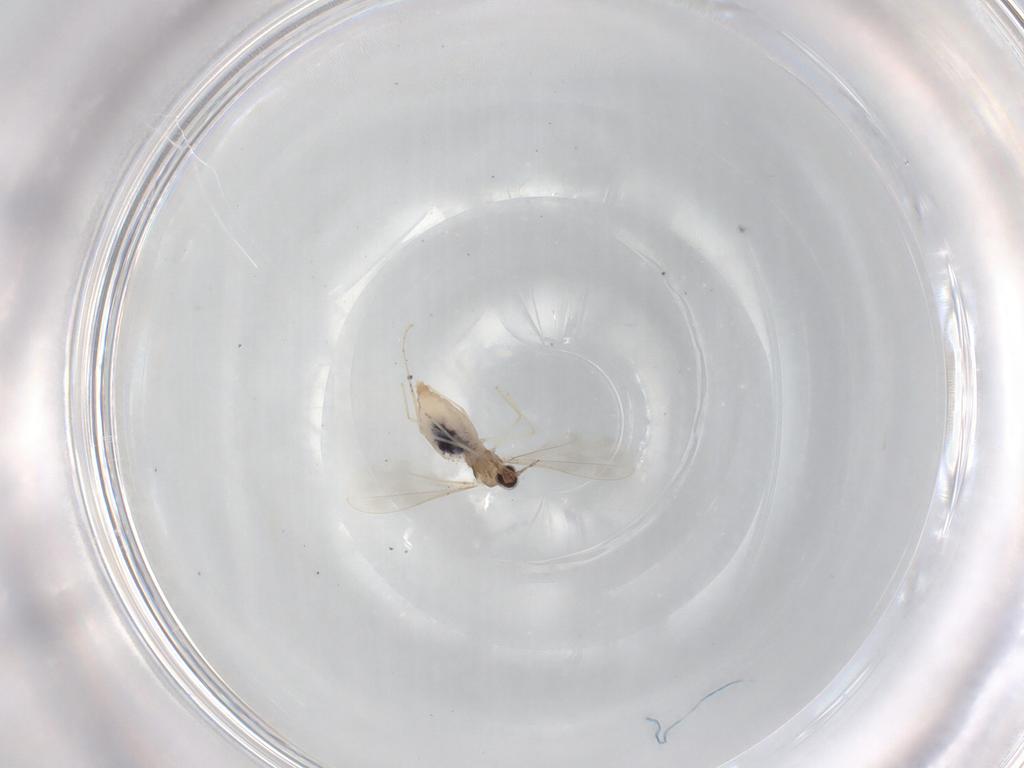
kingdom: Animalia
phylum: Arthropoda
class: Insecta
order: Diptera
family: Cecidomyiidae
